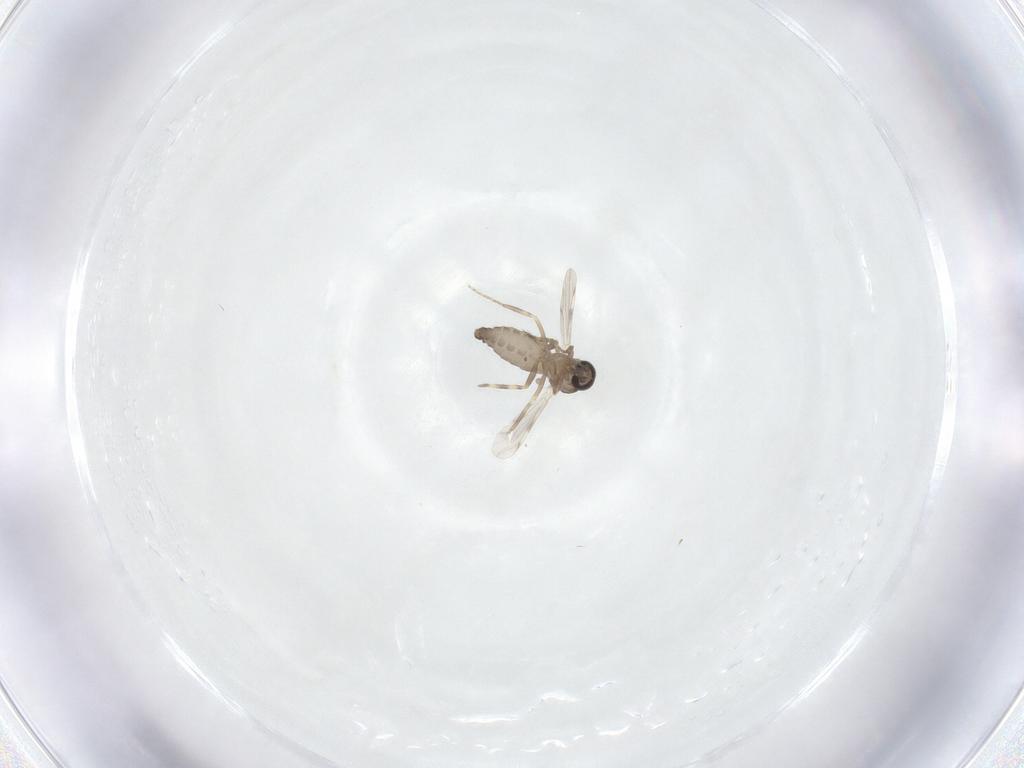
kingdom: Animalia
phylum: Arthropoda
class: Insecta
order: Diptera
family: Ceratopogonidae
